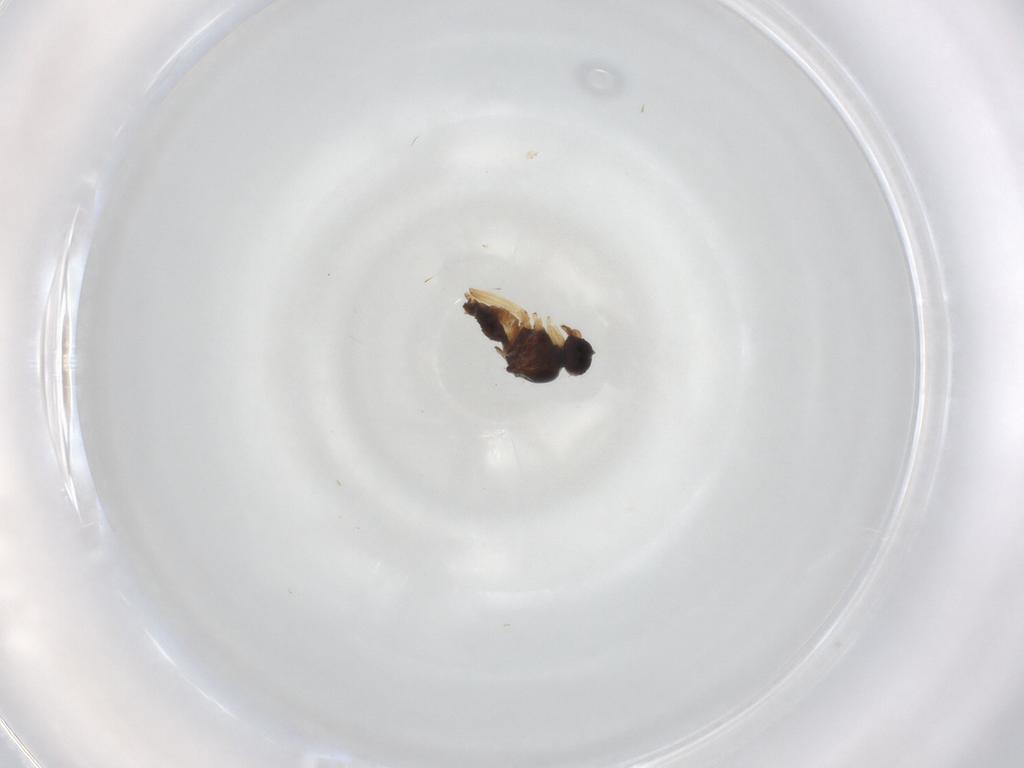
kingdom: Animalia
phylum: Arthropoda
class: Insecta
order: Diptera
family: Hybotidae
